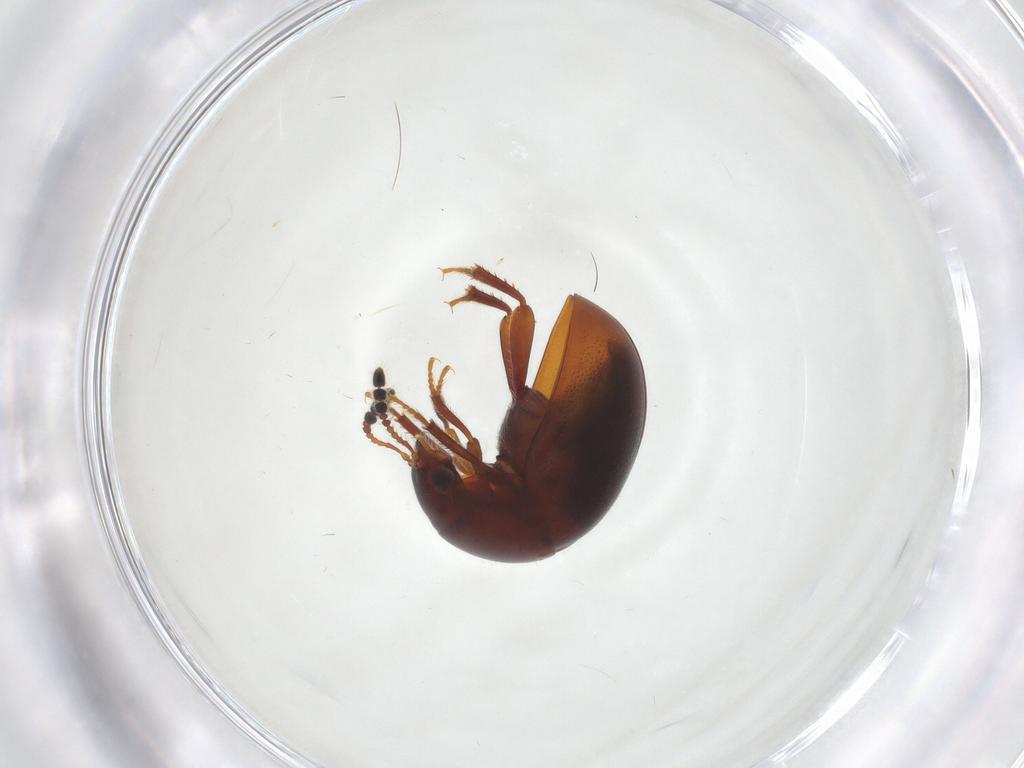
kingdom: Animalia
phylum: Arthropoda
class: Insecta
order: Coleoptera
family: Leiodidae
